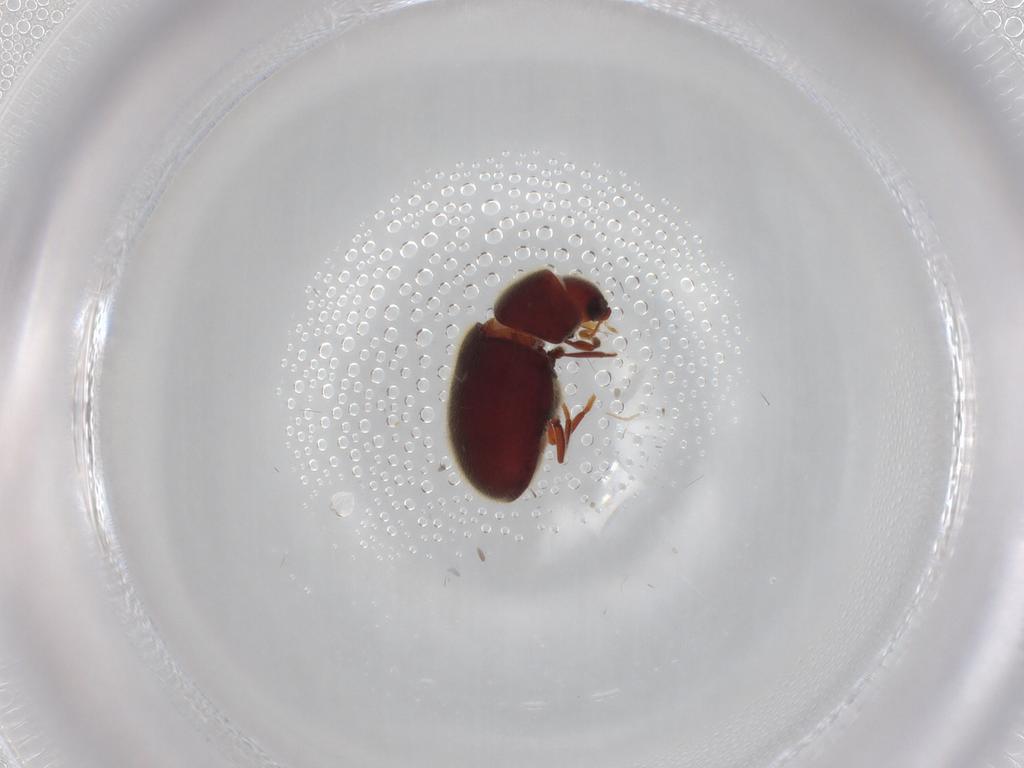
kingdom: Animalia
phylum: Arthropoda
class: Insecta
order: Coleoptera
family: Ptinidae
